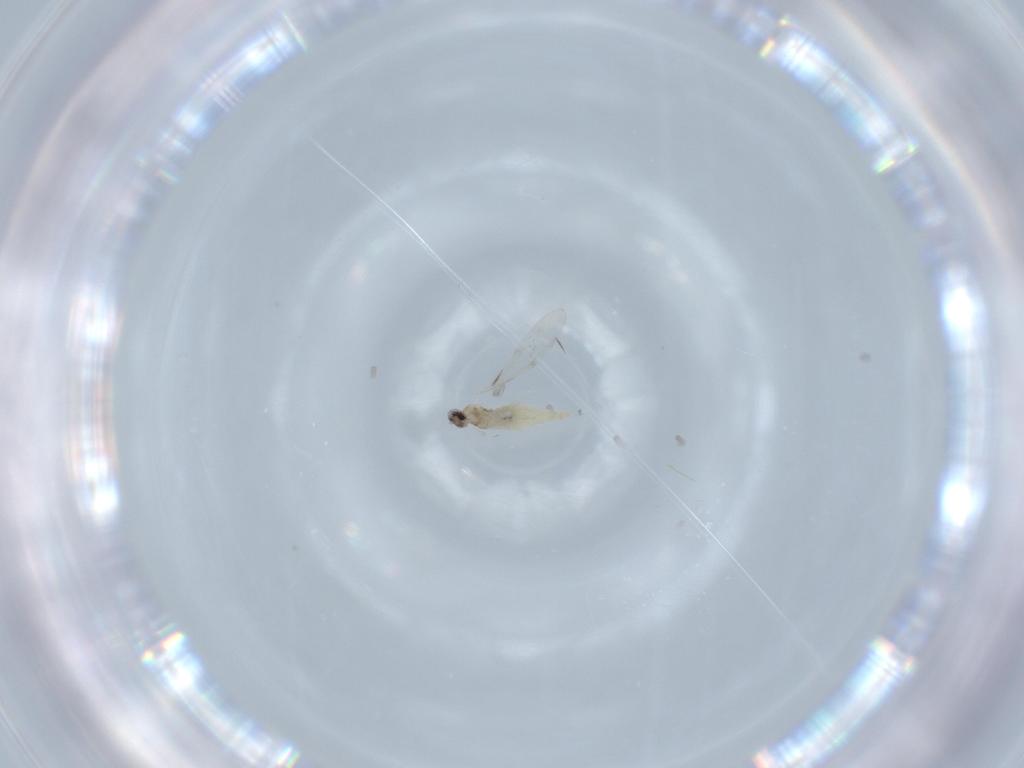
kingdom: Animalia
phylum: Arthropoda
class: Insecta
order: Diptera
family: Cecidomyiidae
